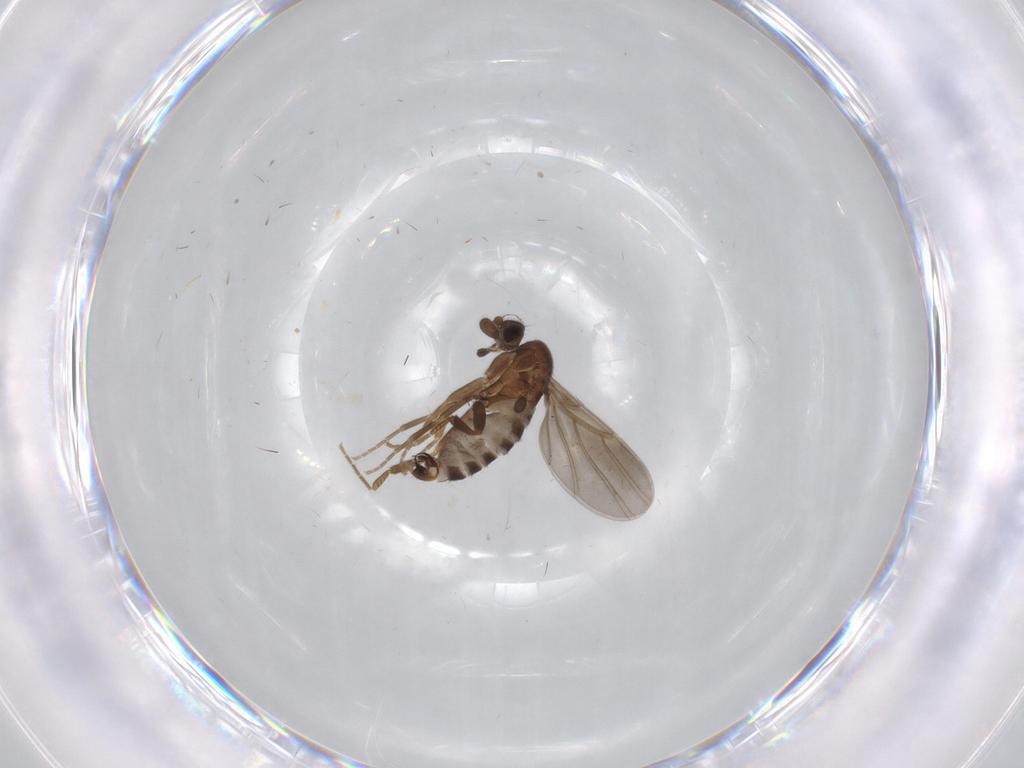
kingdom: Animalia
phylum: Arthropoda
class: Insecta
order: Diptera
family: Phoridae
